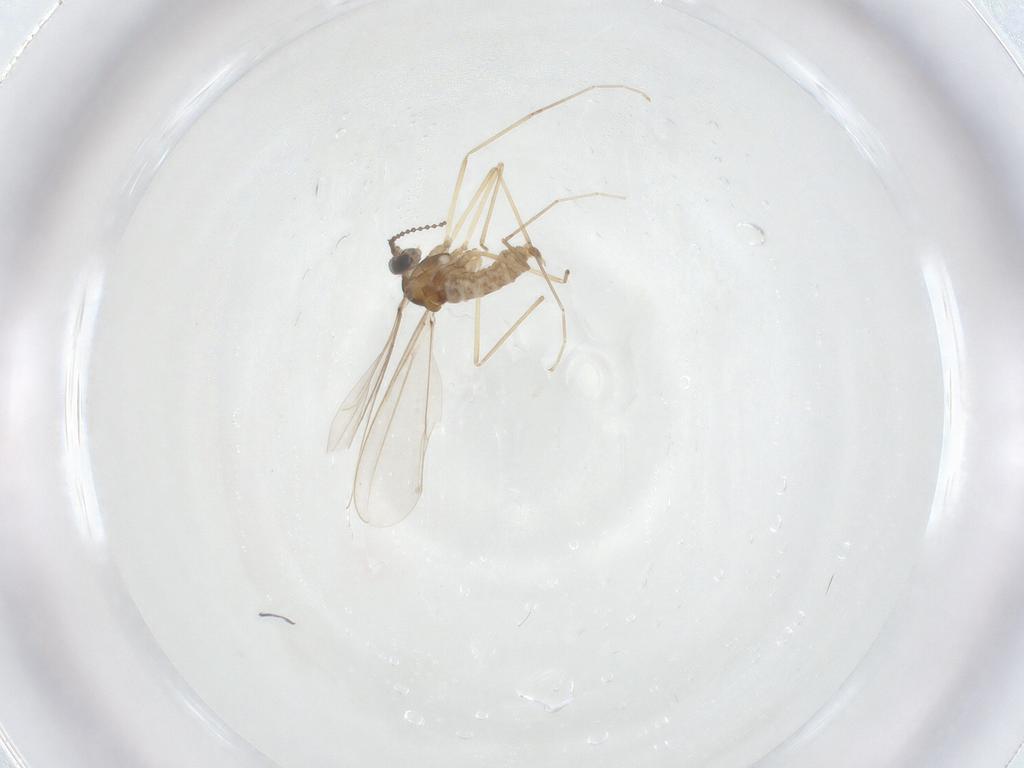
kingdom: Animalia
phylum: Arthropoda
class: Insecta
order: Diptera
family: Cecidomyiidae
